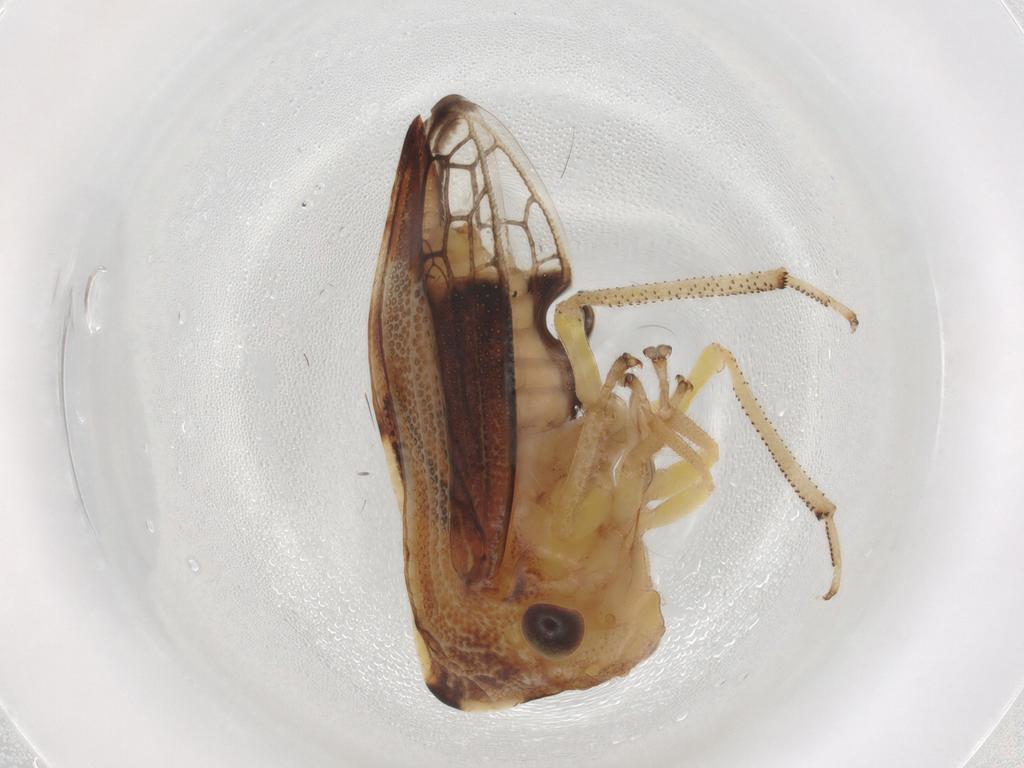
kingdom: Animalia
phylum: Arthropoda
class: Insecta
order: Hemiptera
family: Membracidae
